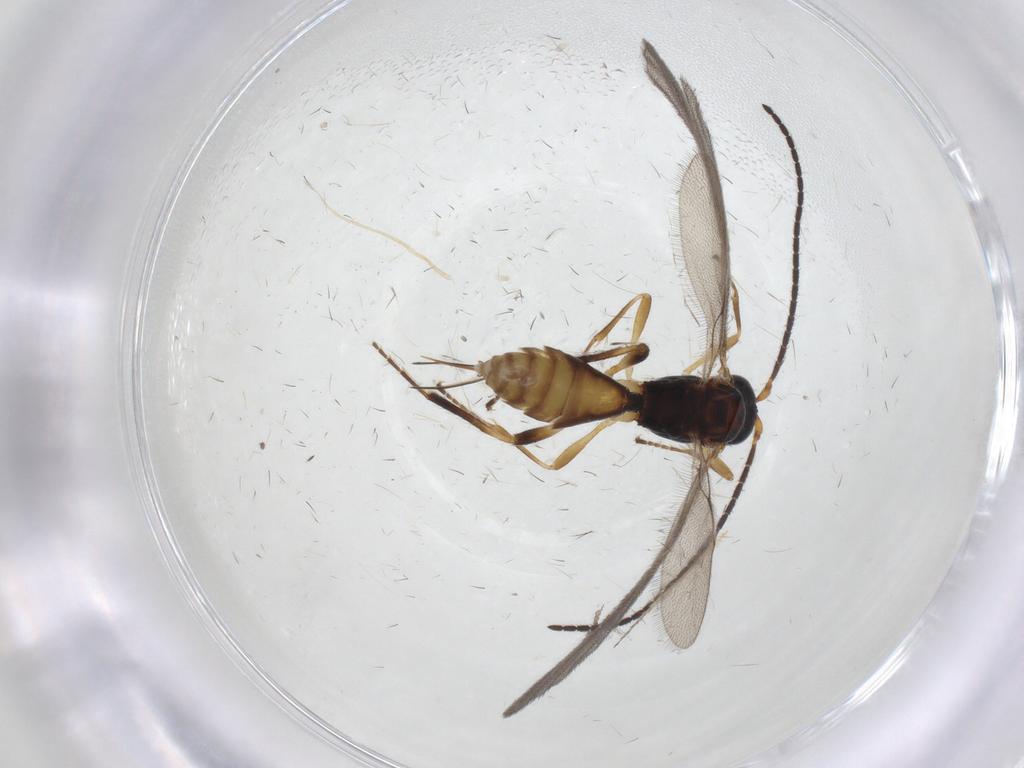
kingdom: Animalia
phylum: Arthropoda
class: Insecta
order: Hymenoptera
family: Braconidae
